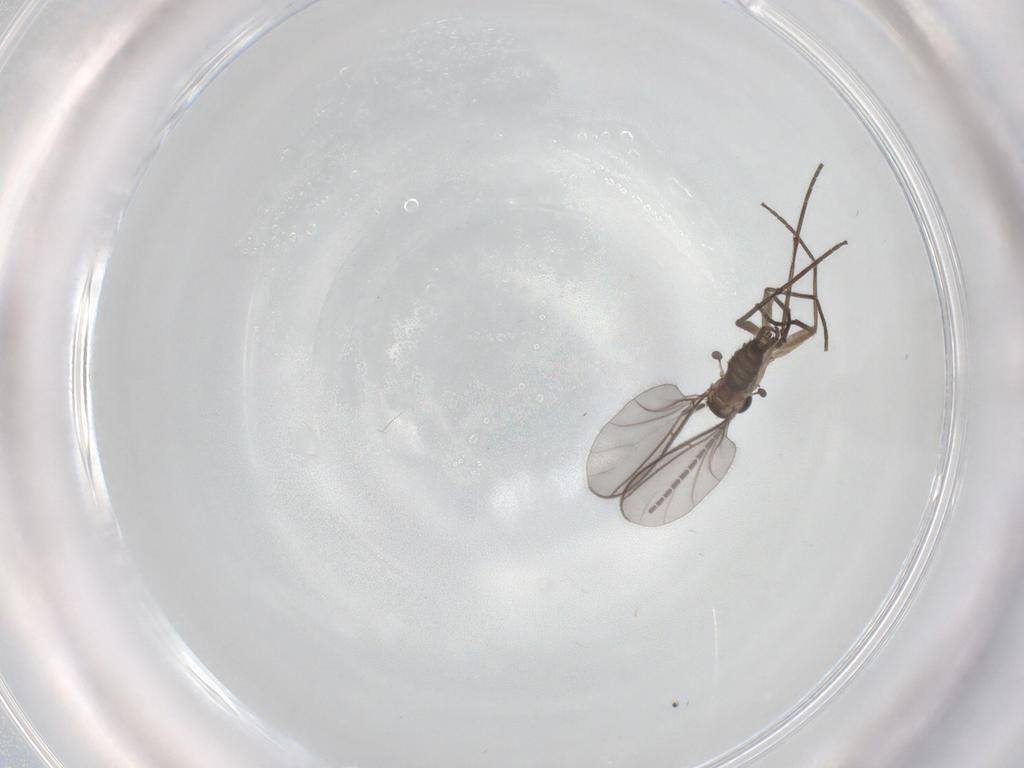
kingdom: Animalia
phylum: Arthropoda
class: Insecta
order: Diptera
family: Sciaridae
